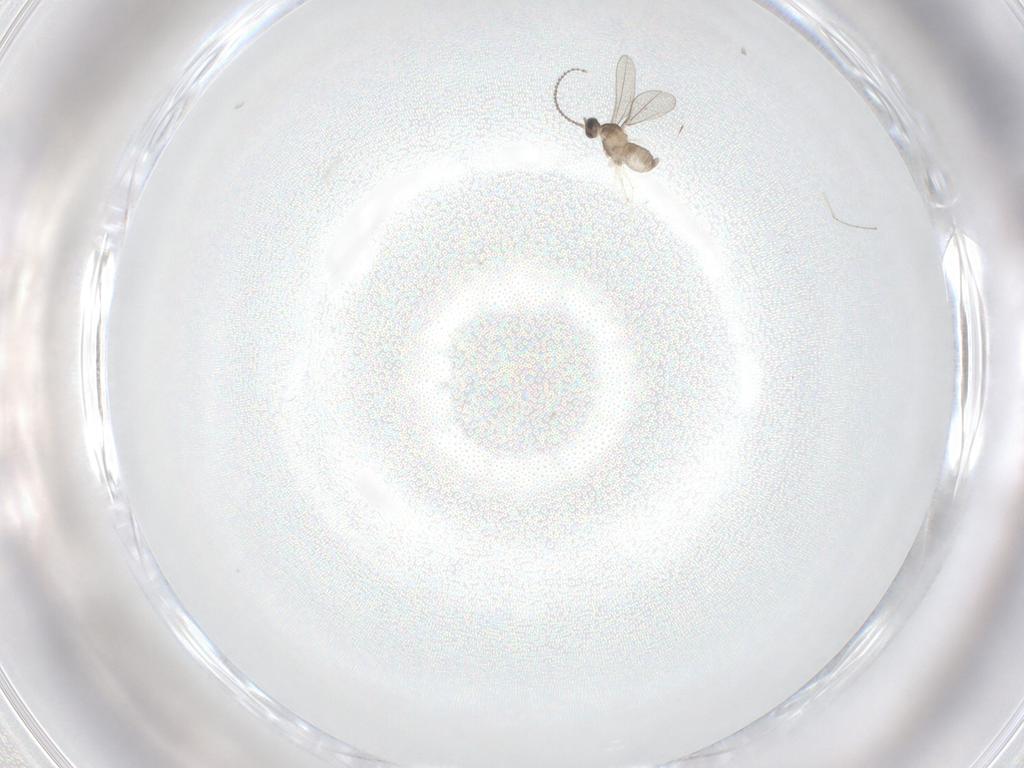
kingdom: Animalia
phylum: Arthropoda
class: Insecta
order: Diptera
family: Cecidomyiidae
